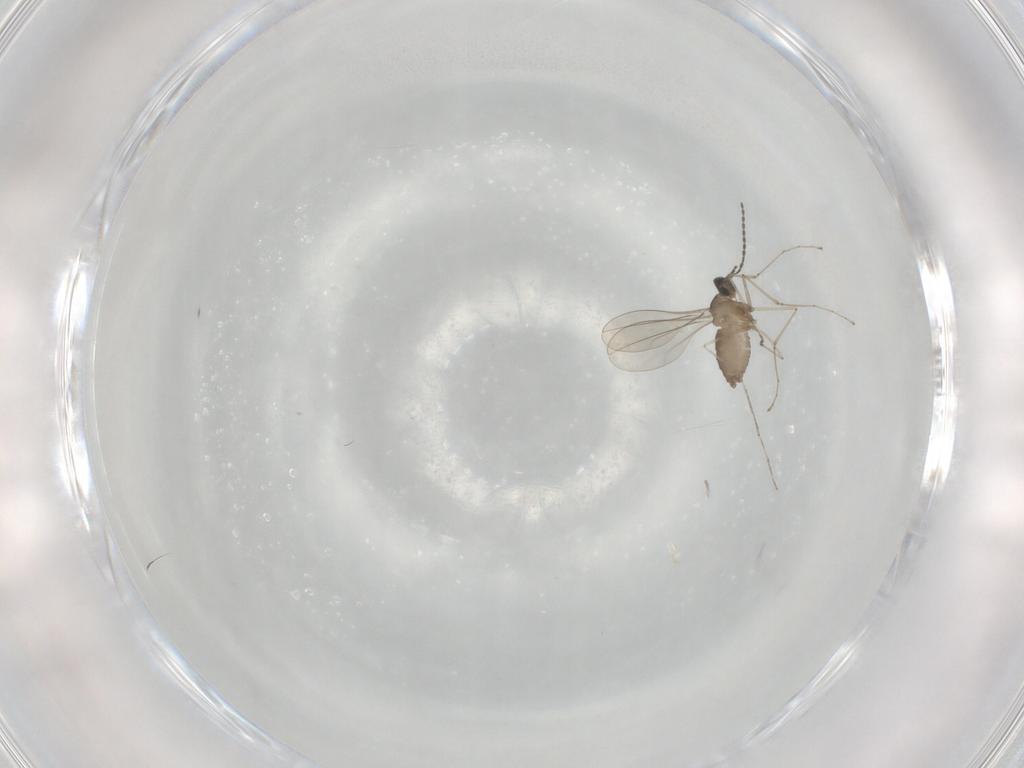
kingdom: Animalia
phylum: Arthropoda
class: Insecta
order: Diptera
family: Cecidomyiidae
